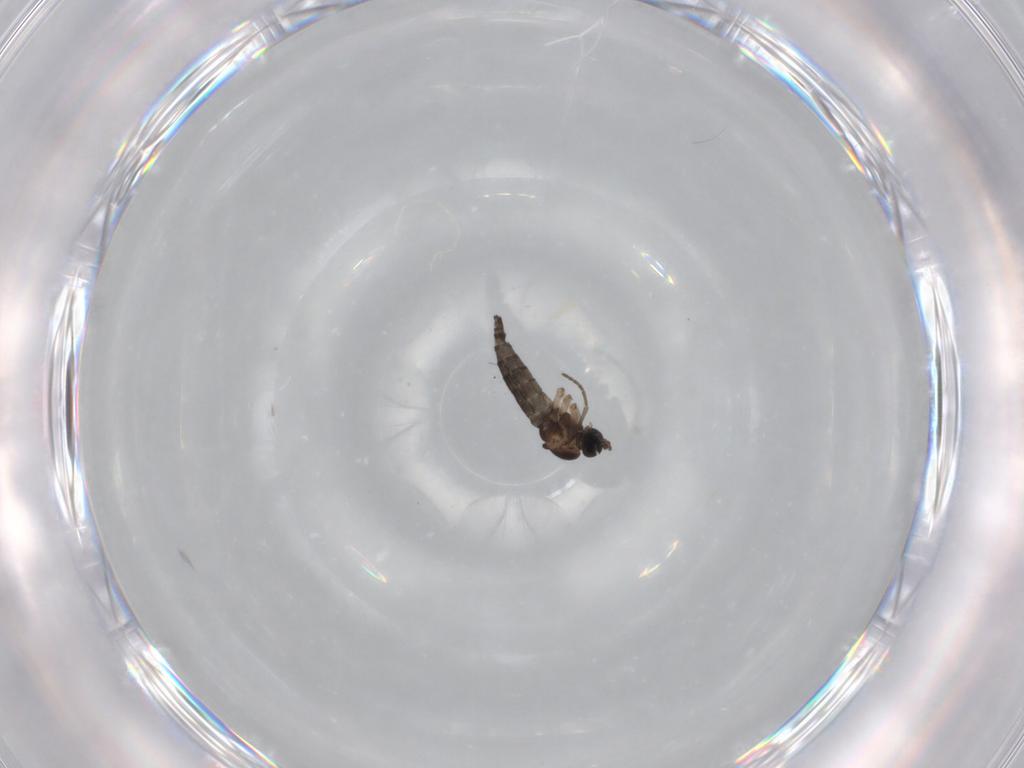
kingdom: Animalia
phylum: Arthropoda
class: Insecta
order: Diptera
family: Sciaridae
